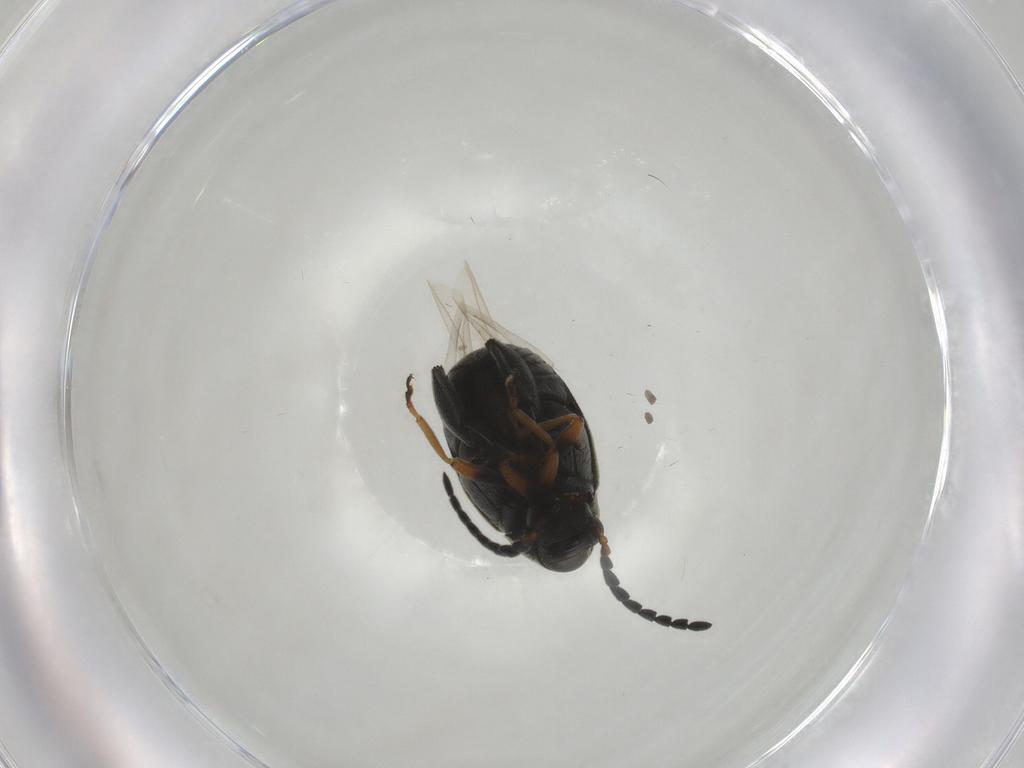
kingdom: Animalia
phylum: Arthropoda
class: Insecta
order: Coleoptera
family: Chrysomelidae
